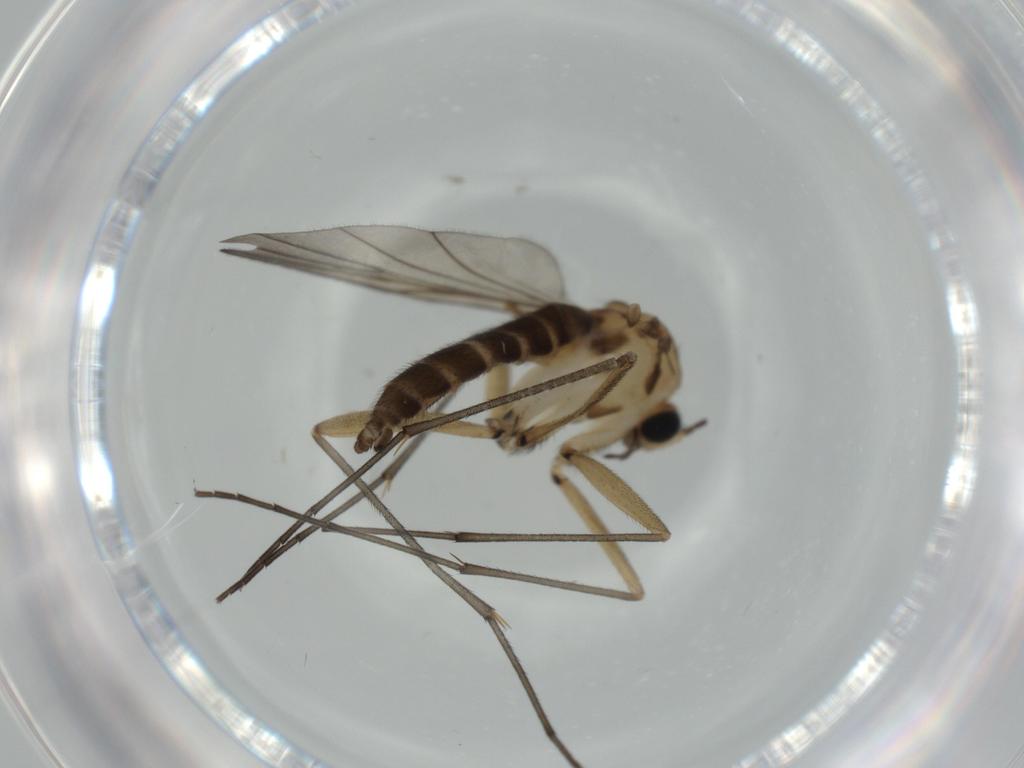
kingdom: Animalia
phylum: Arthropoda
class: Insecta
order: Diptera
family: Sciaridae
